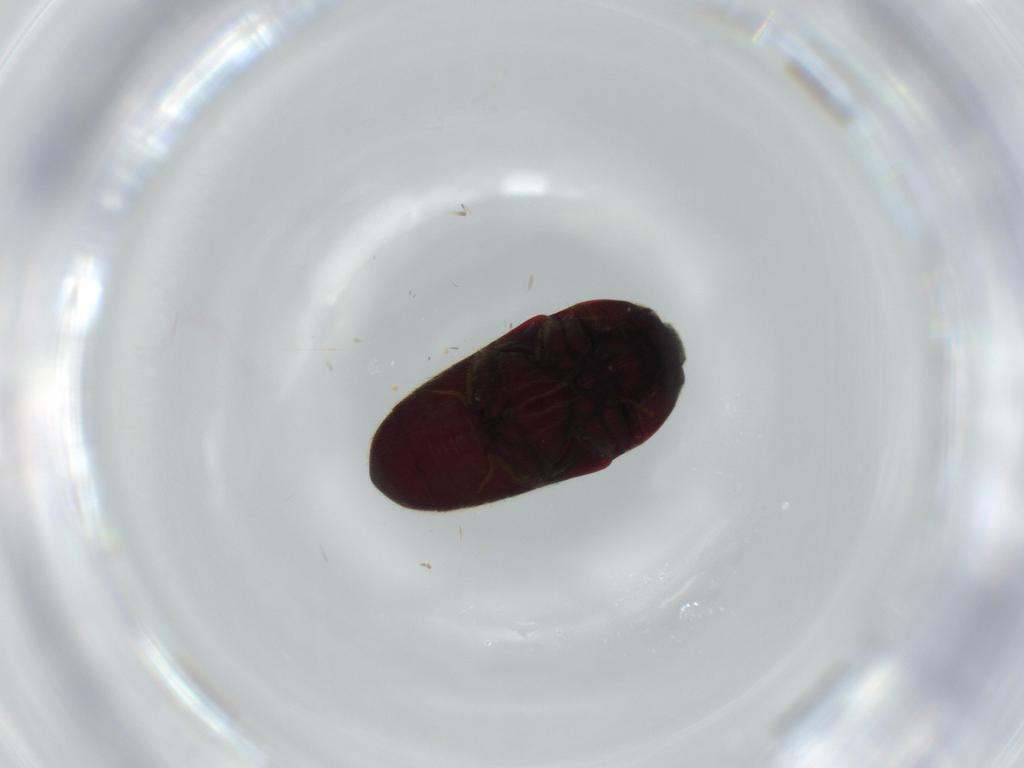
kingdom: Animalia
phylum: Arthropoda
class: Insecta
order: Coleoptera
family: Throscidae
